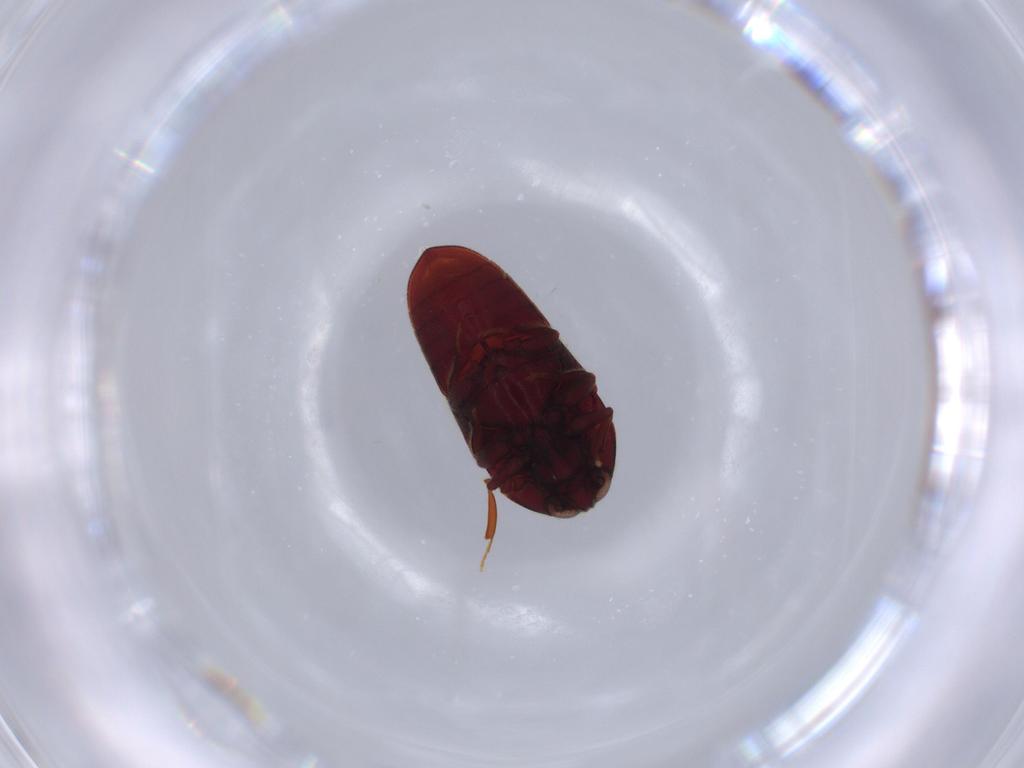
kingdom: Animalia
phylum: Arthropoda
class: Insecta
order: Coleoptera
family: Throscidae
